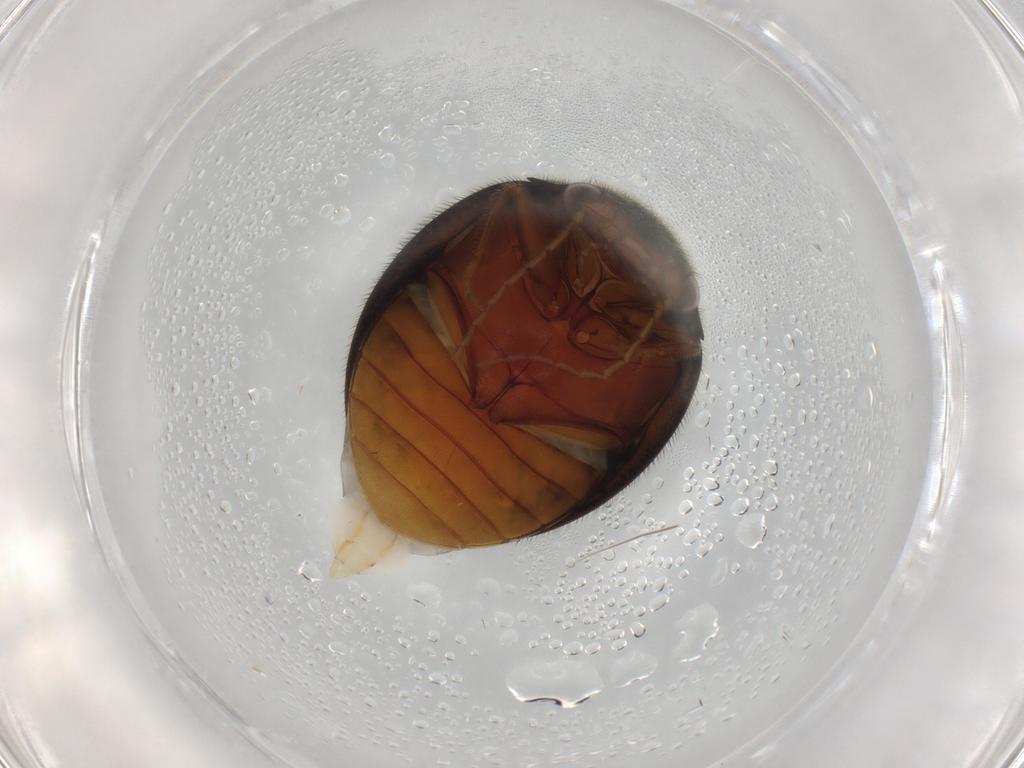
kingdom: Animalia
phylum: Arthropoda
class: Insecta
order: Coleoptera
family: Scirtidae
